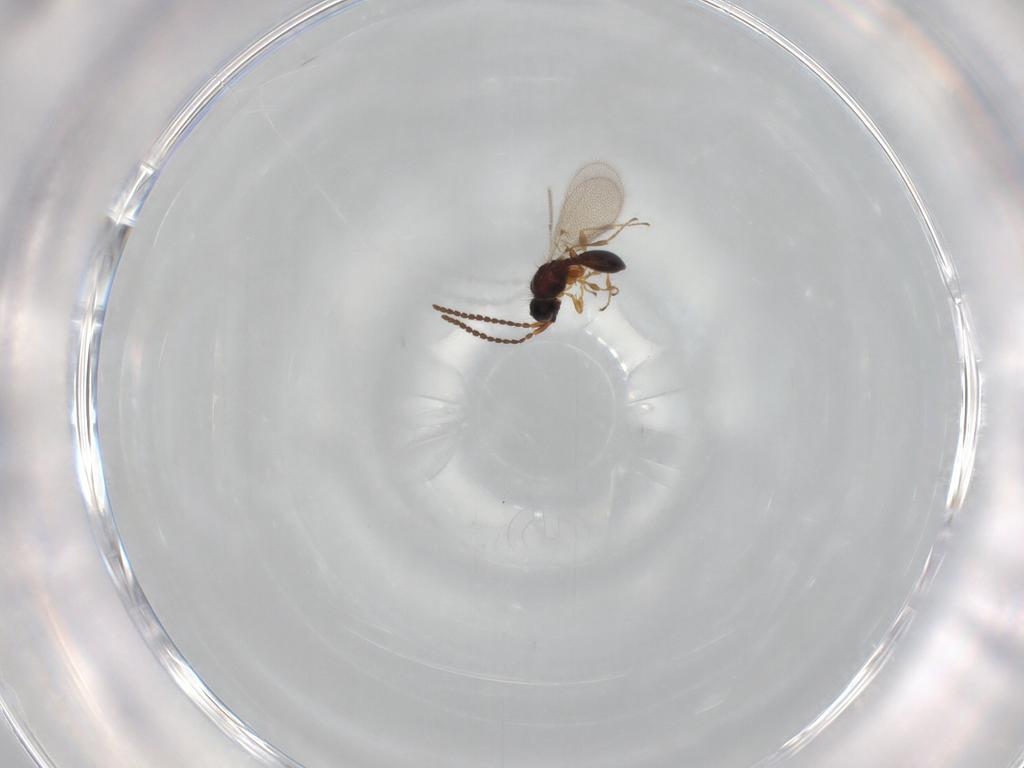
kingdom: Animalia
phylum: Arthropoda
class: Insecta
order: Hymenoptera
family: Diapriidae
